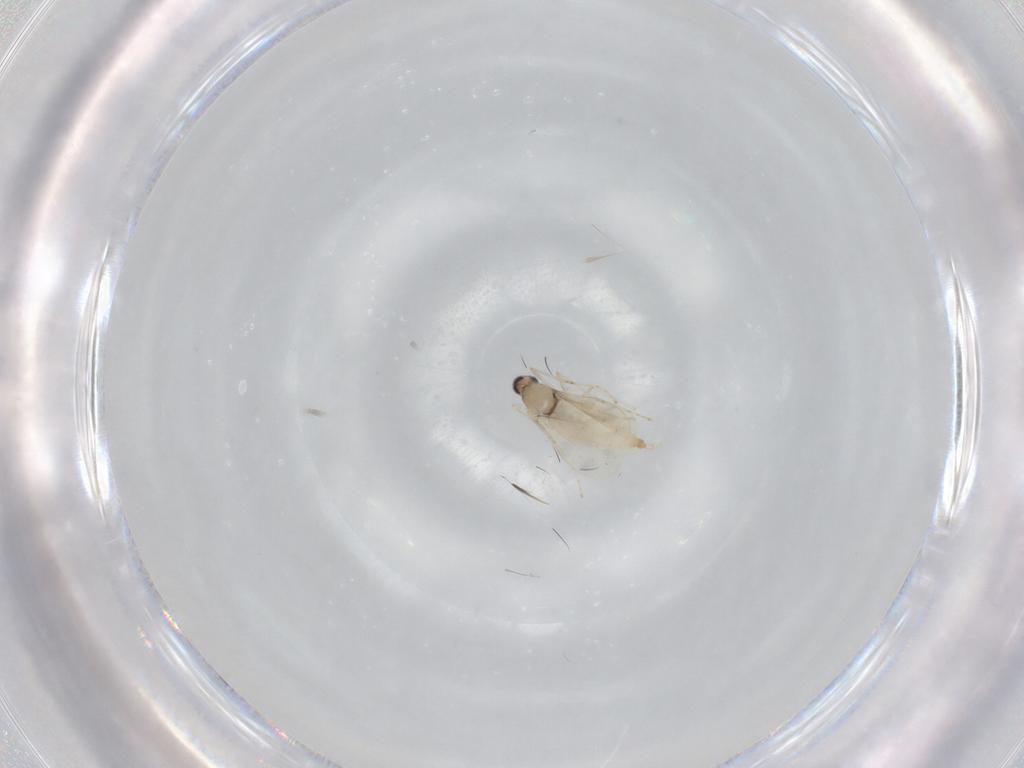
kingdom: Animalia
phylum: Arthropoda
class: Insecta
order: Diptera
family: Cecidomyiidae
